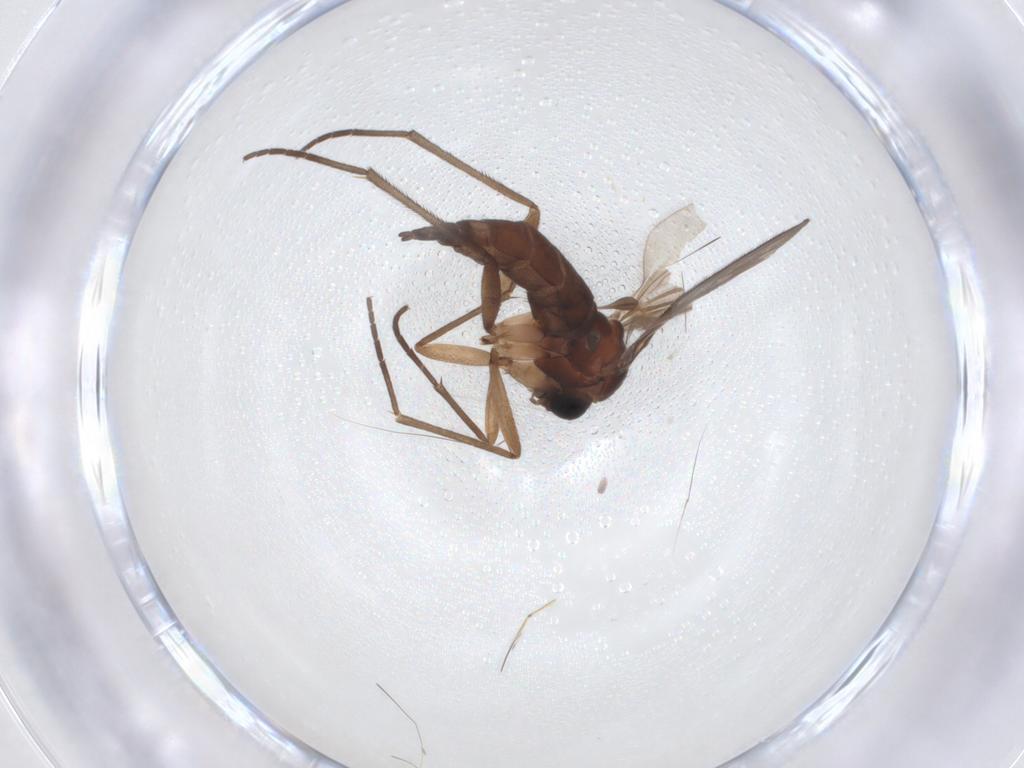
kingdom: Animalia
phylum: Arthropoda
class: Insecta
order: Diptera
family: Sciaridae
